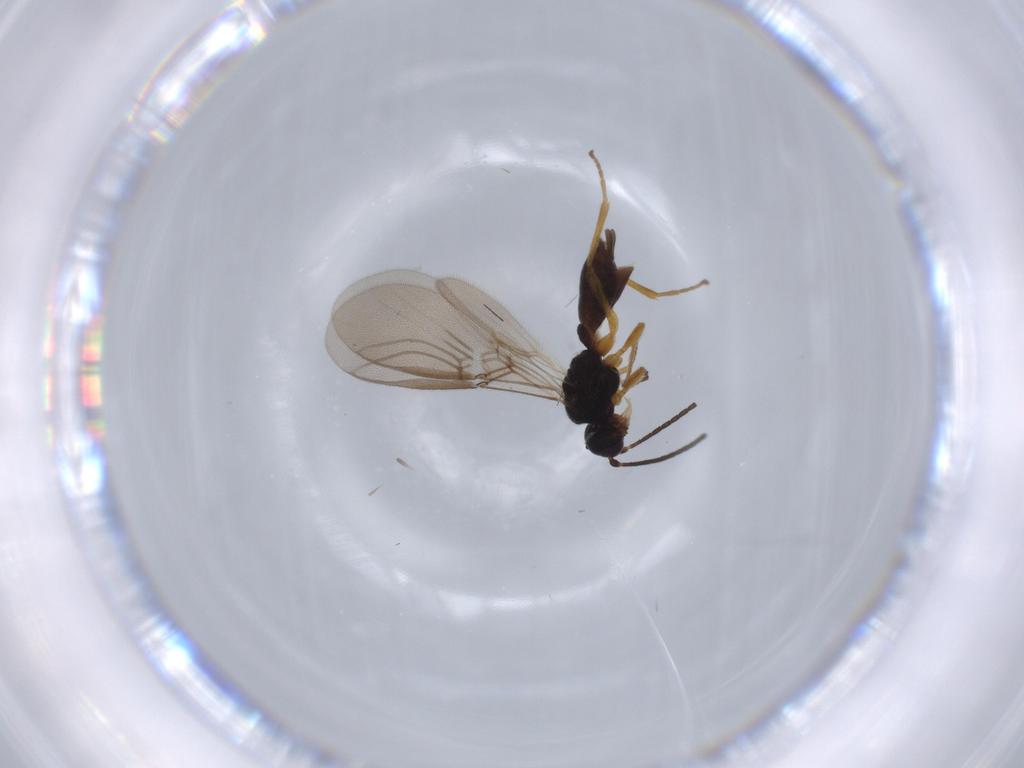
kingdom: Animalia
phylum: Arthropoda
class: Insecta
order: Hymenoptera
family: Braconidae
